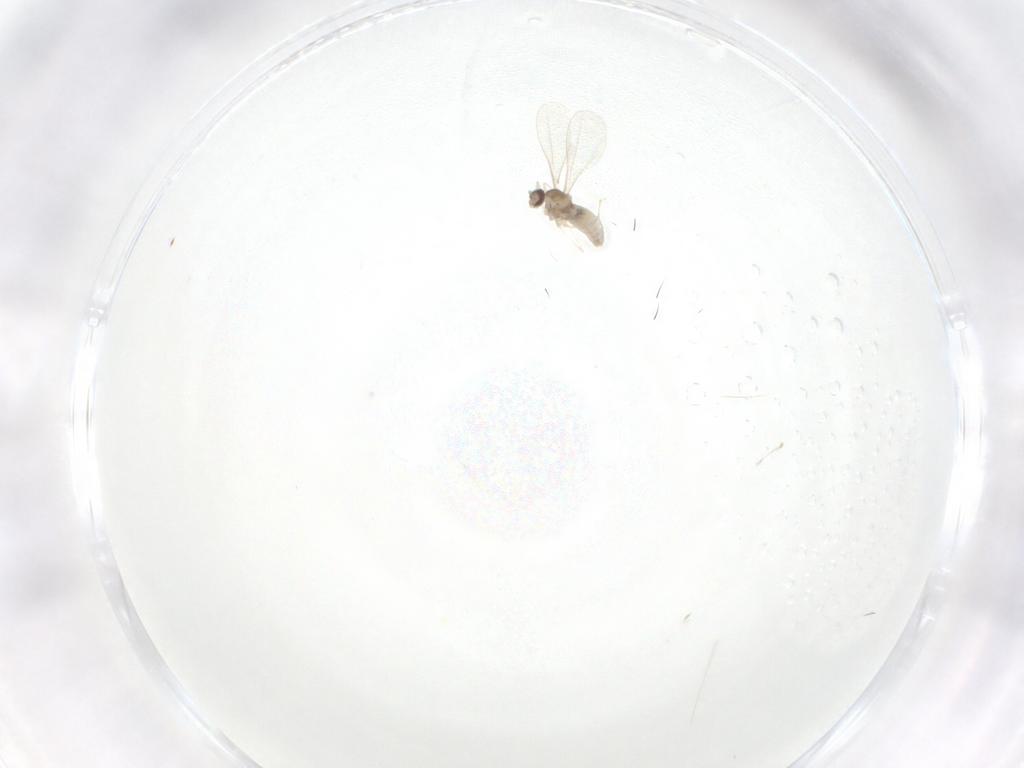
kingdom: Animalia
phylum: Arthropoda
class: Insecta
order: Diptera
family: Cecidomyiidae
